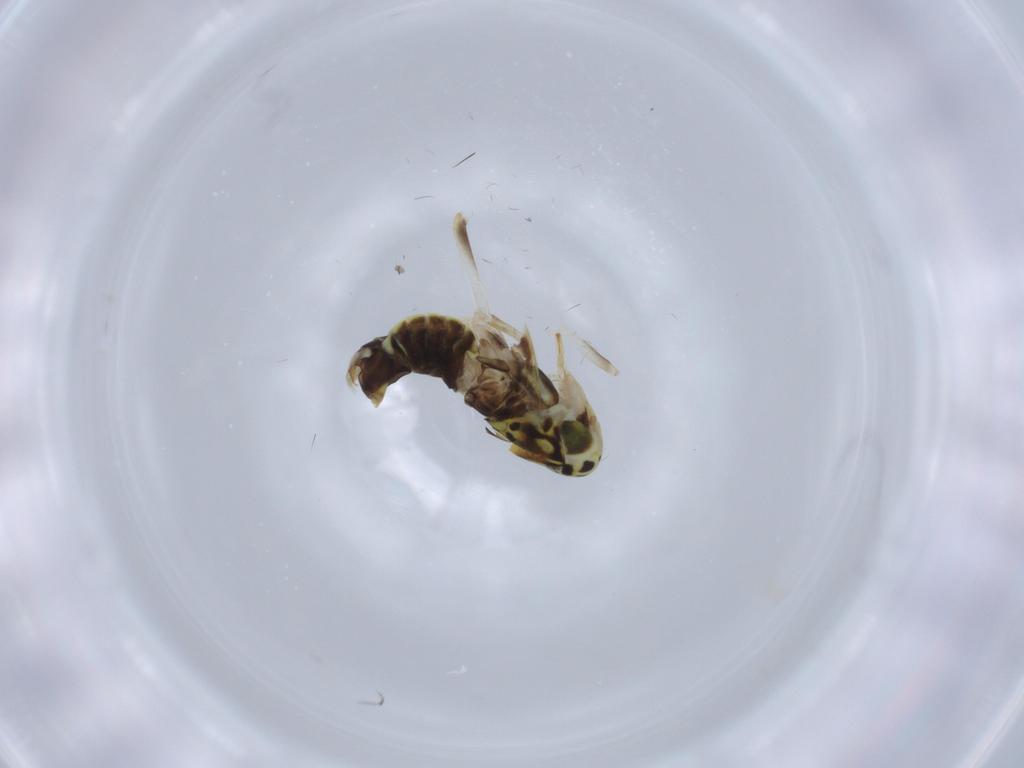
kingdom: Animalia
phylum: Arthropoda
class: Insecta
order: Hemiptera
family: Cicadellidae
